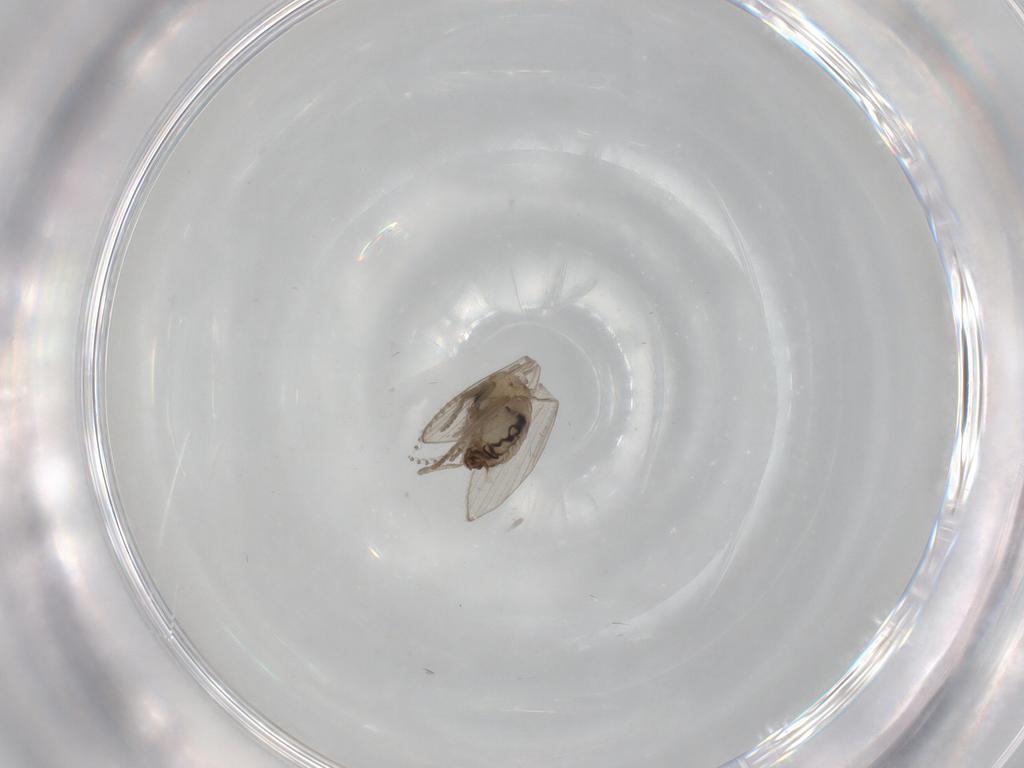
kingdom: Animalia
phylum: Arthropoda
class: Insecta
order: Diptera
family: Psychodidae
